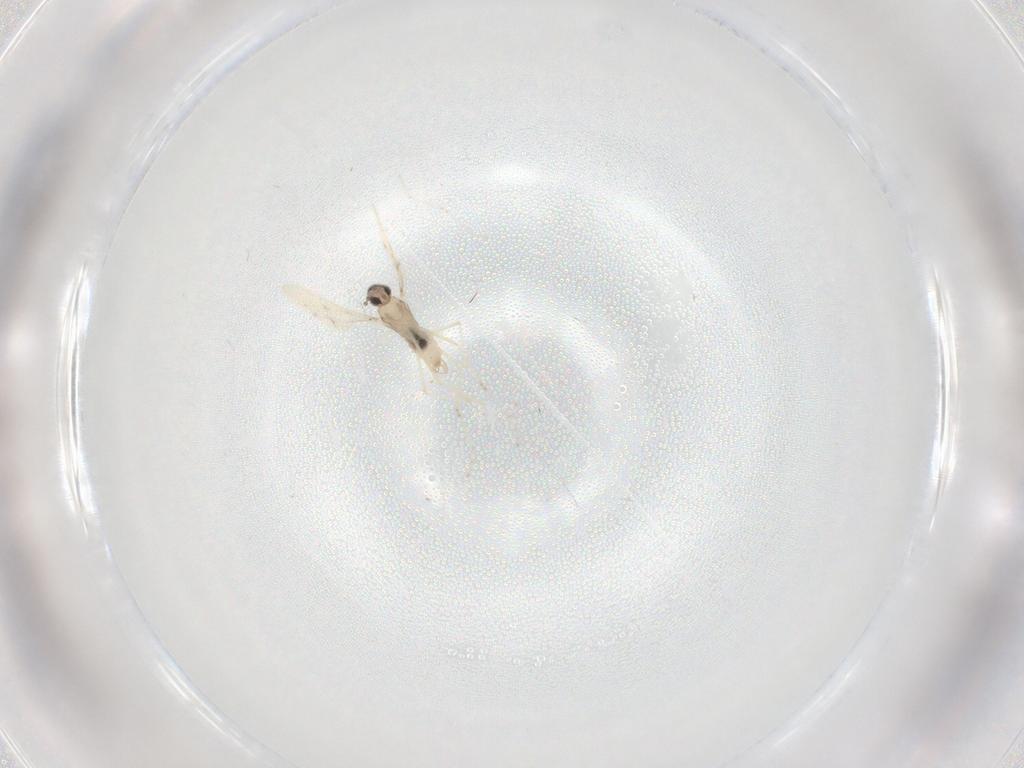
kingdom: Animalia
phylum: Arthropoda
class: Insecta
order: Diptera
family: Cecidomyiidae
